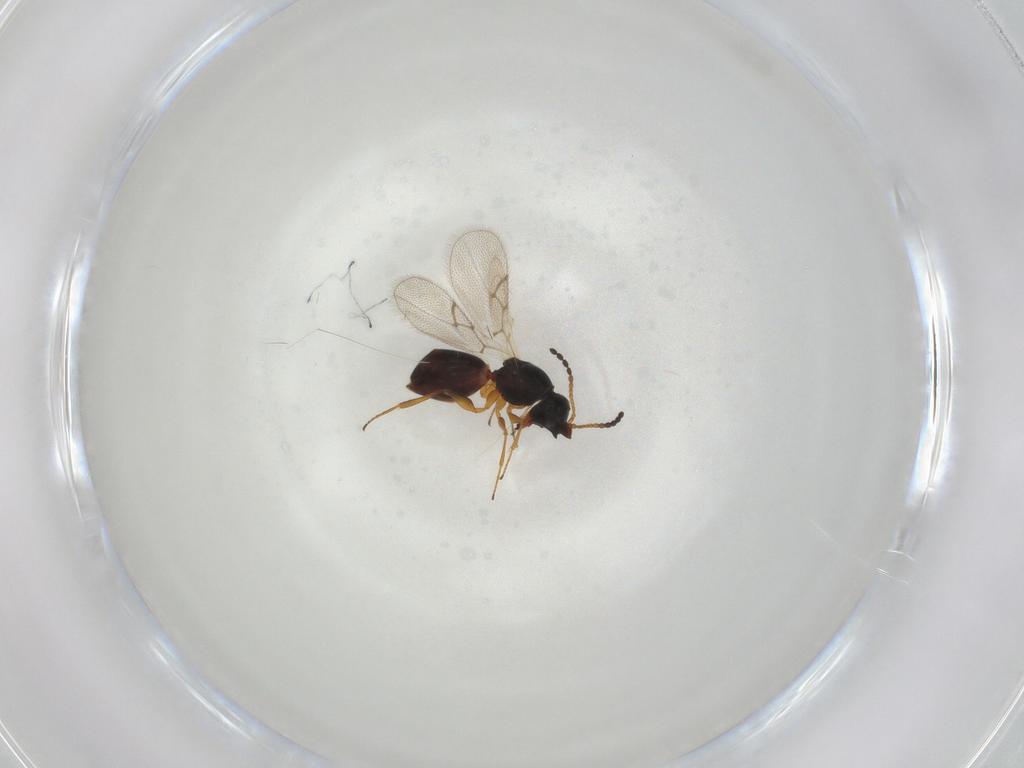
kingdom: Animalia
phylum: Arthropoda
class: Insecta
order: Hymenoptera
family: Figitidae
